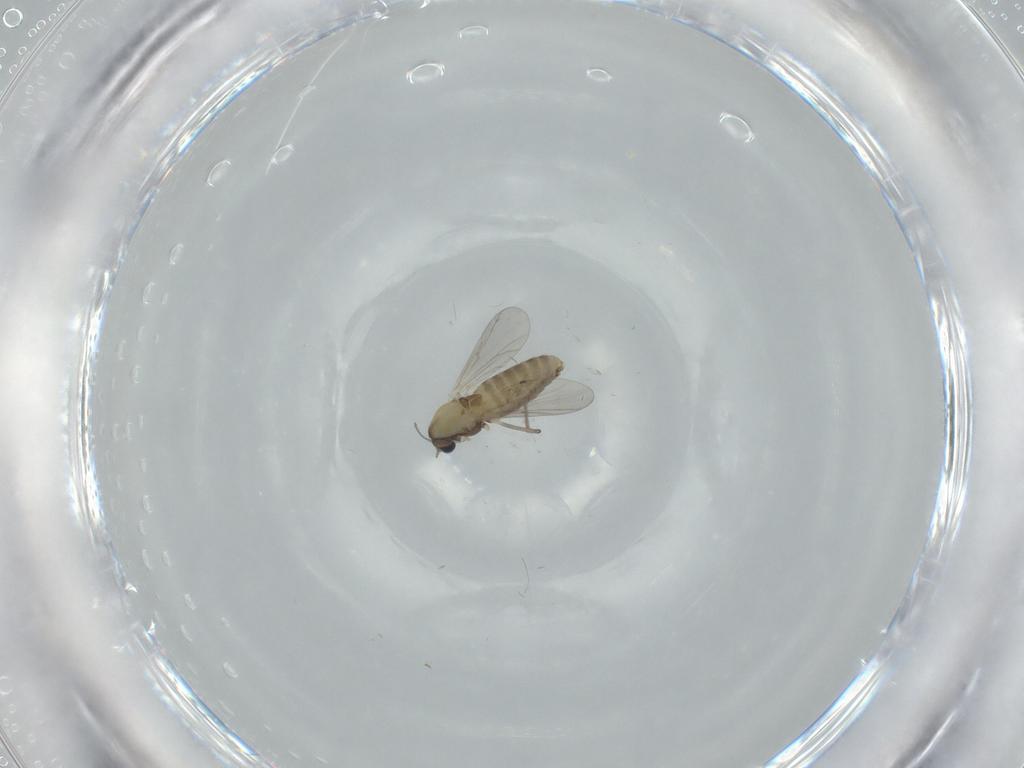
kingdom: Animalia
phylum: Arthropoda
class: Insecta
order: Diptera
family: Chironomidae
